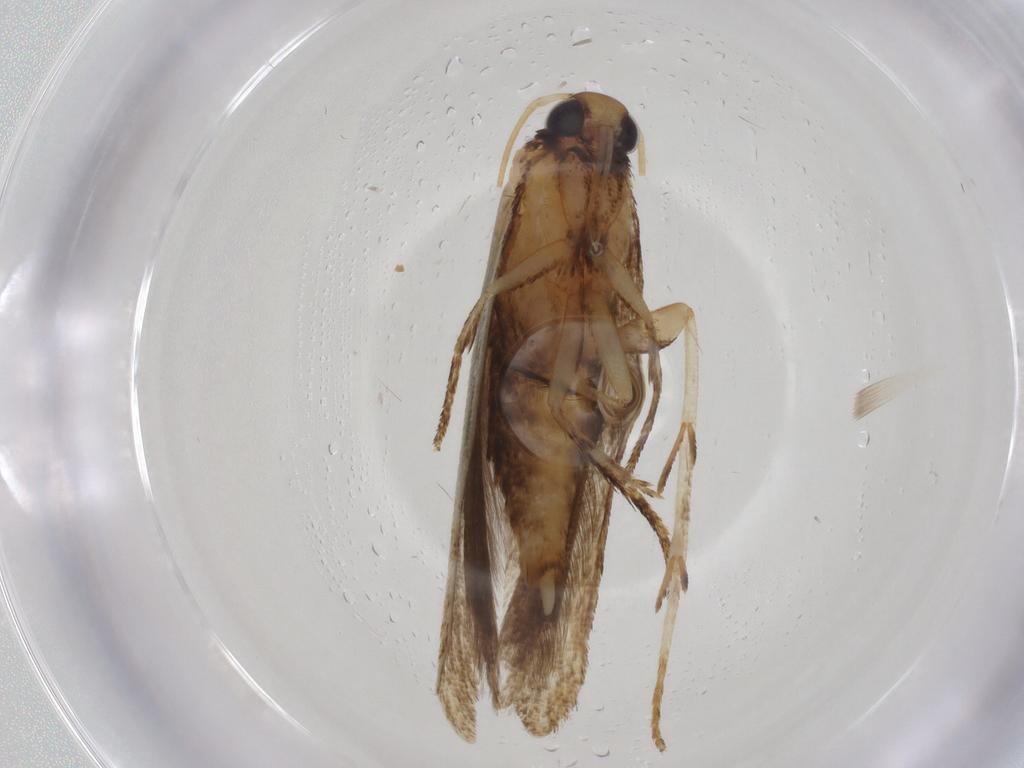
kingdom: Animalia
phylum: Arthropoda
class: Insecta
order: Lepidoptera
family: Gelechiidae
